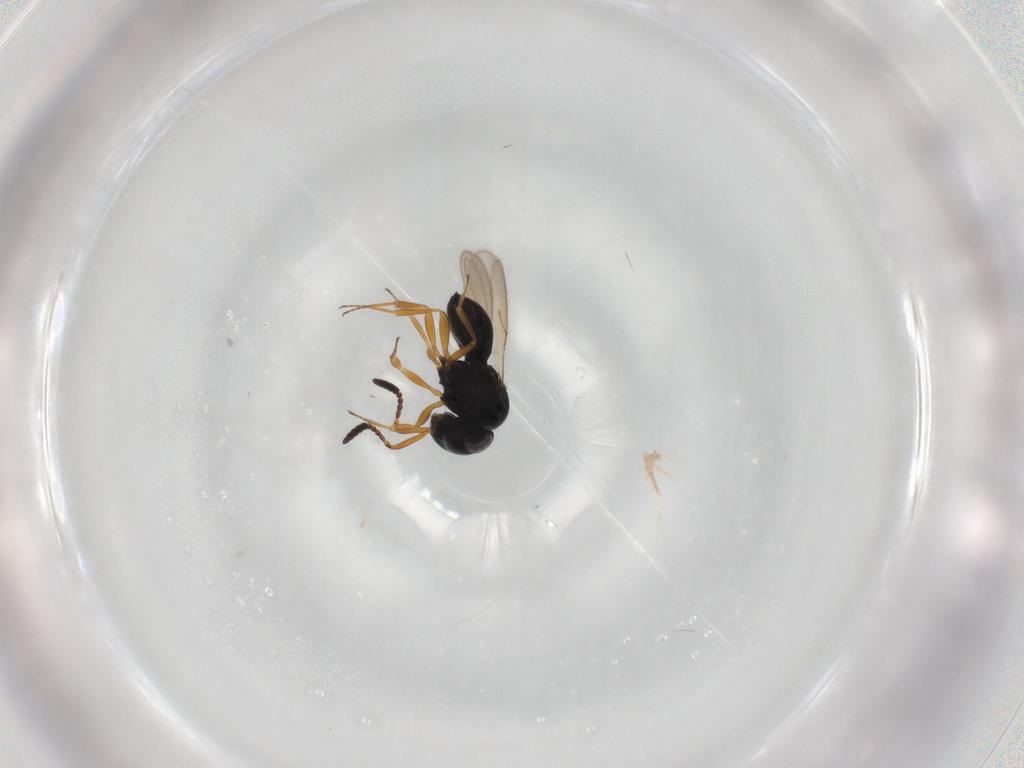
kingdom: Animalia
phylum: Arthropoda
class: Insecta
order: Hymenoptera
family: Scelionidae
